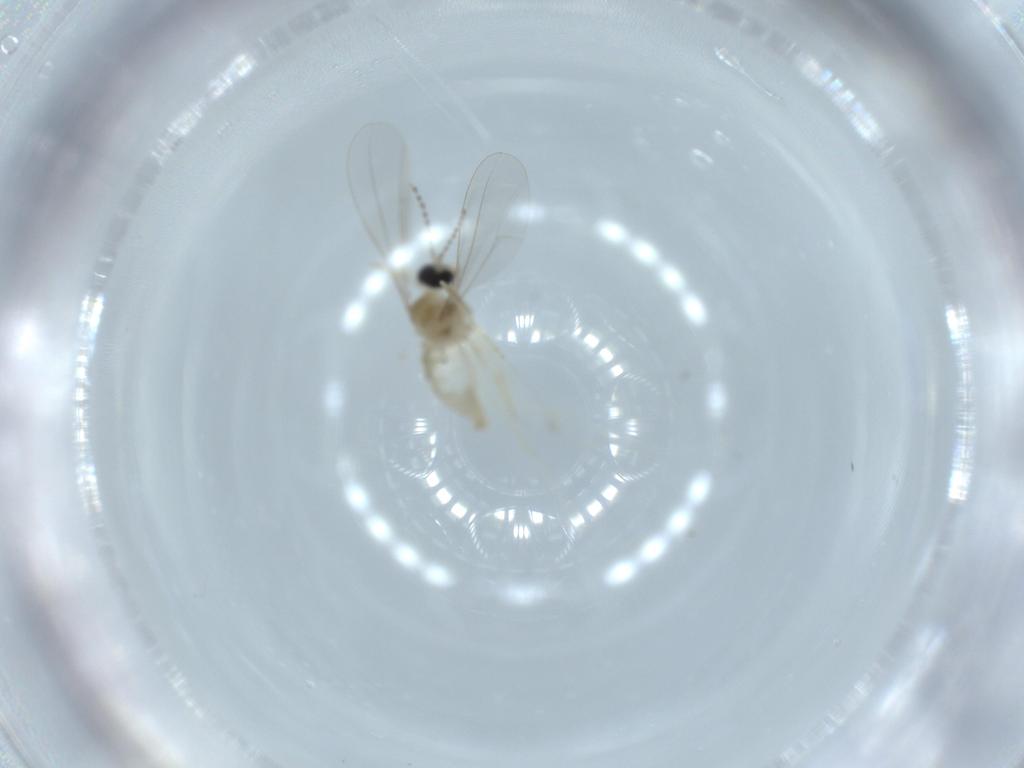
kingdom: Animalia
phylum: Arthropoda
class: Insecta
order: Diptera
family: Cecidomyiidae
